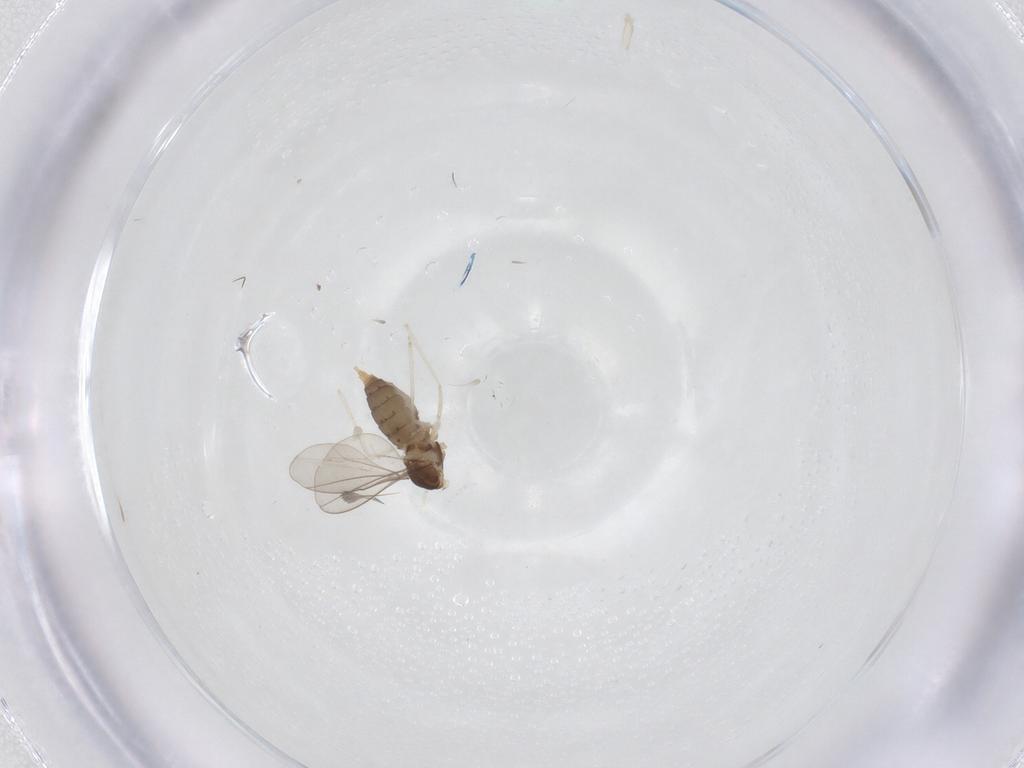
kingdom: Animalia
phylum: Arthropoda
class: Insecta
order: Diptera
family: Cecidomyiidae
